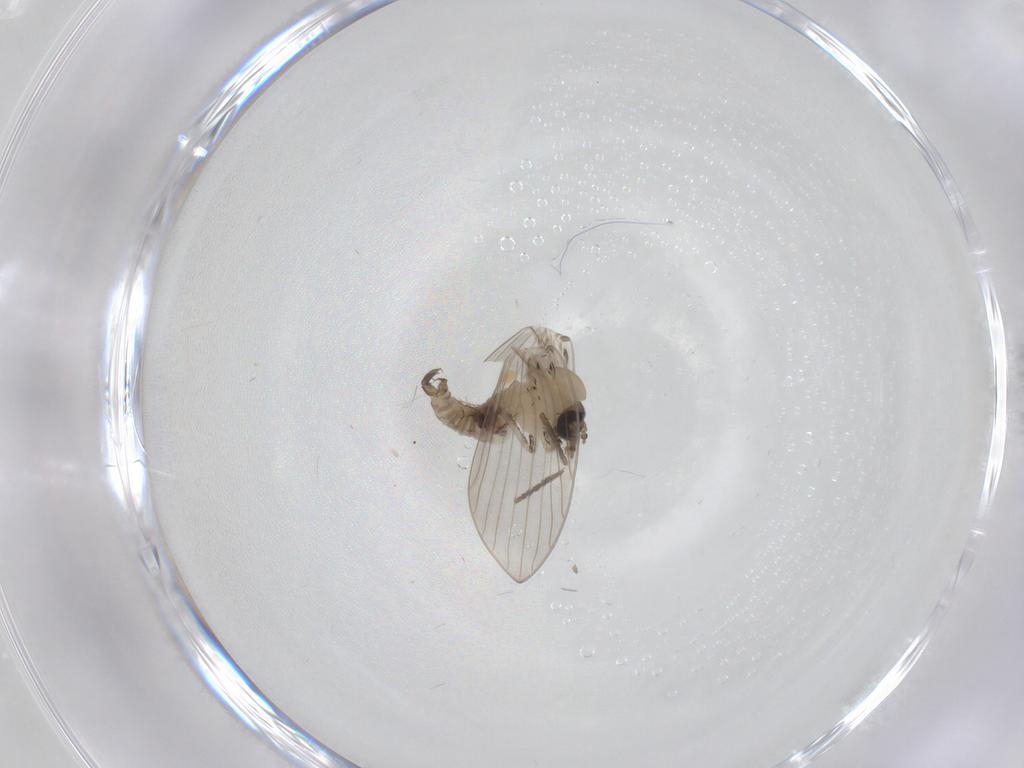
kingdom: Animalia
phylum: Arthropoda
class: Insecta
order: Diptera
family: Psychodidae
